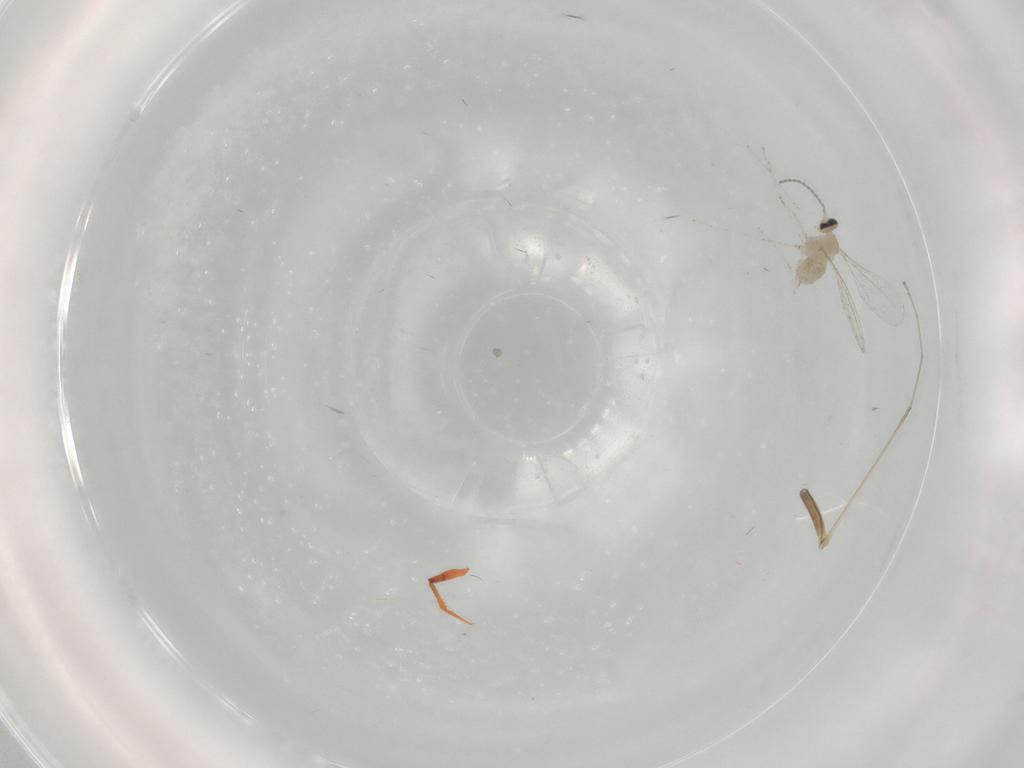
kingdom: Animalia
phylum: Arthropoda
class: Insecta
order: Diptera
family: Cecidomyiidae
